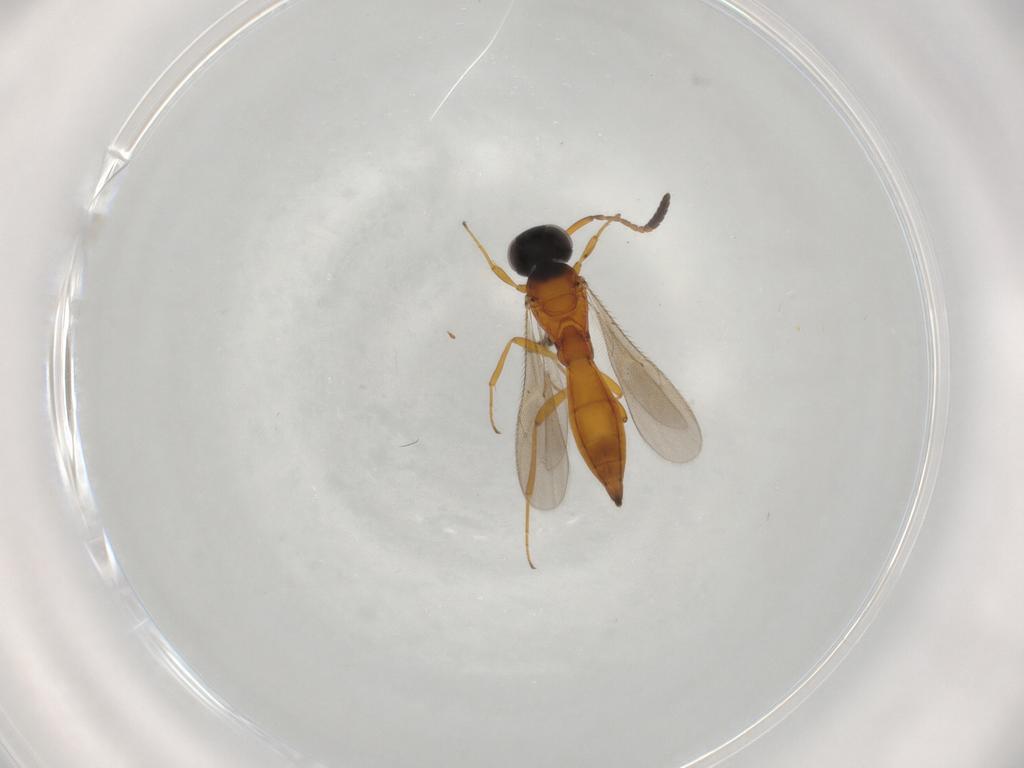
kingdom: Animalia
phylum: Arthropoda
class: Insecta
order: Hymenoptera
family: Scelionidae
